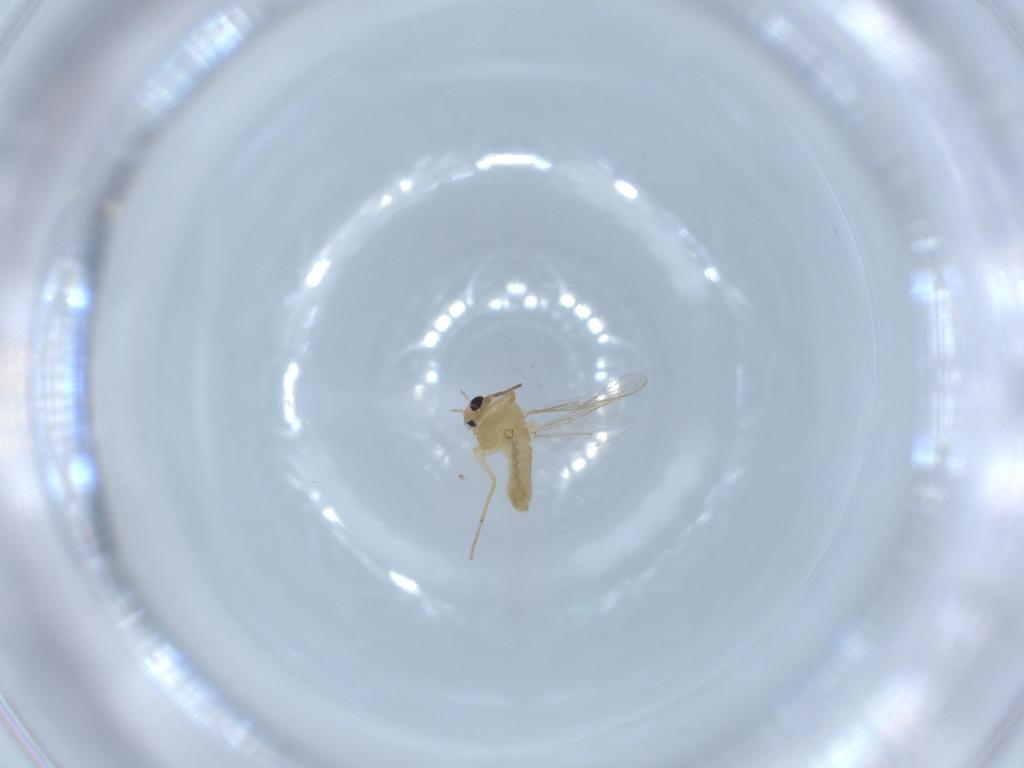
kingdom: Animalia
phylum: Arthropoda
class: Insecta
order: Diptera
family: Chironomidae
